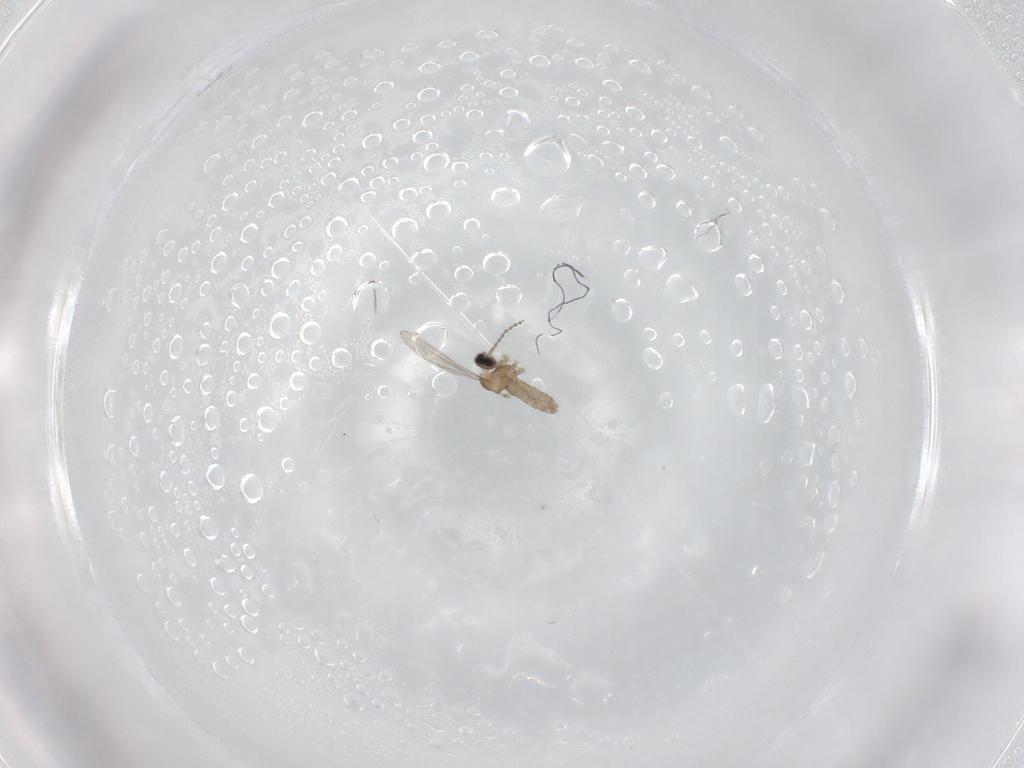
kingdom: Animalia
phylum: Arthropoda
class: Insecta
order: Diptera
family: Cecidomyiidae
